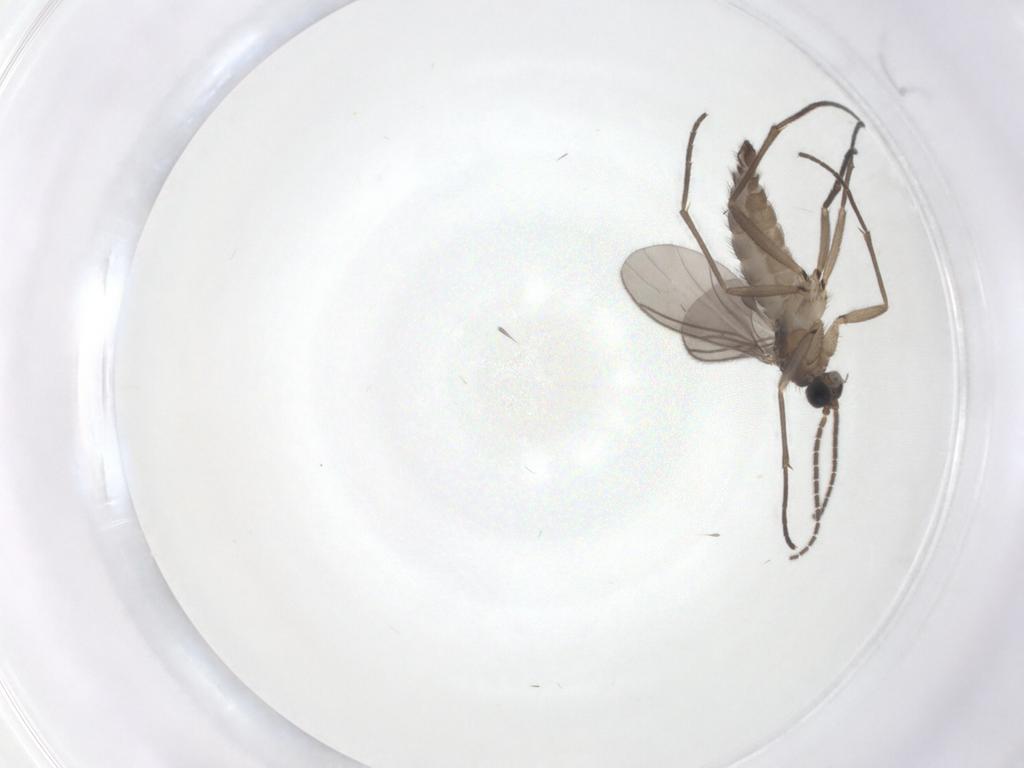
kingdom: Animalia
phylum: Arthropoda
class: Insecta
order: Diptera
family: Sciaridae
